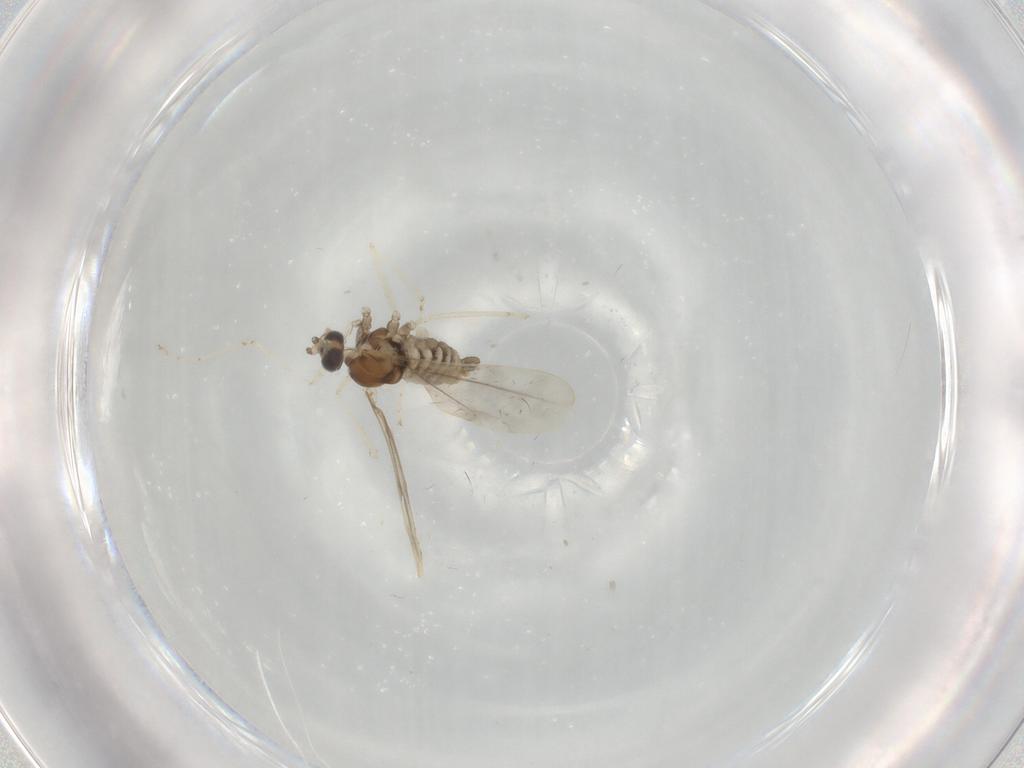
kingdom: Animalia
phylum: Arthropoda
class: Insecta
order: Diptera
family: Cecidomyiidae
